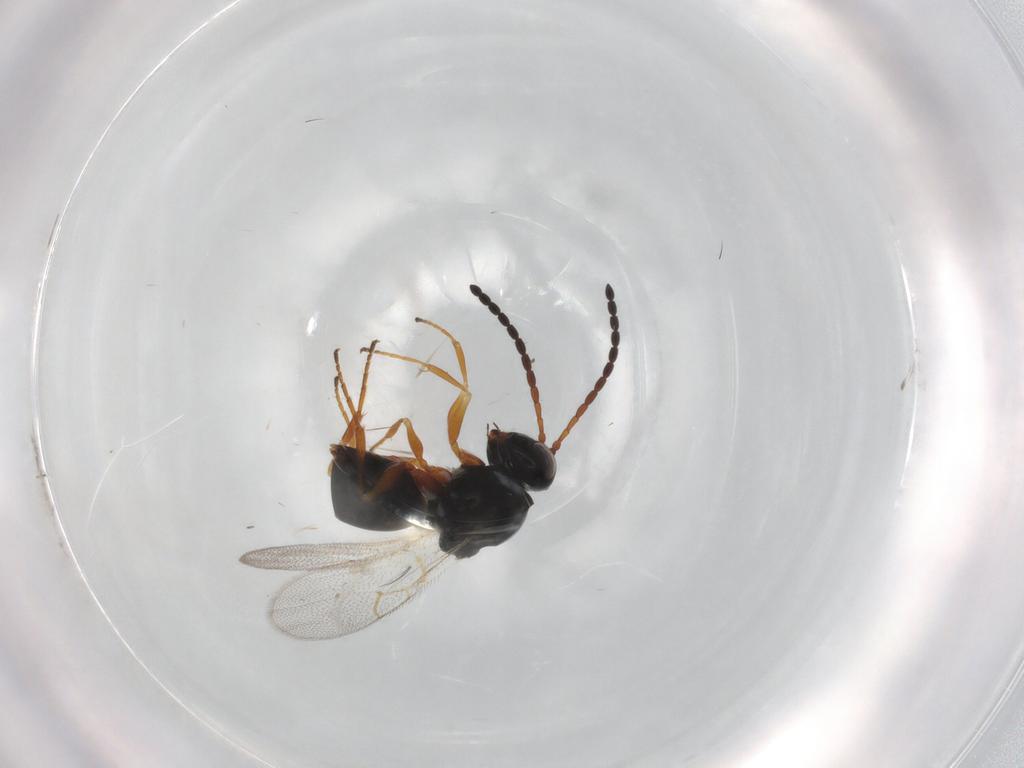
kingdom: Animalia
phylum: Arthropoda
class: Insecta
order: Hymenoptera
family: Figitidae
